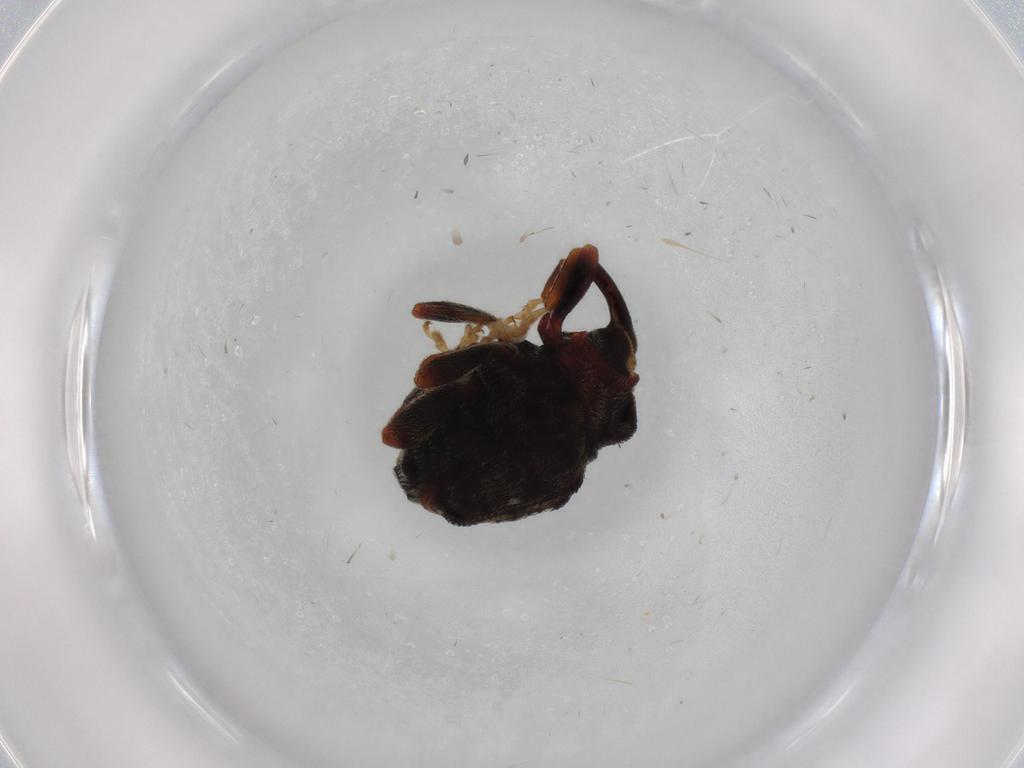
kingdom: Animalia
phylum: Arthropoda
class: Insecta
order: Coleoptera
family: Curculionidae
